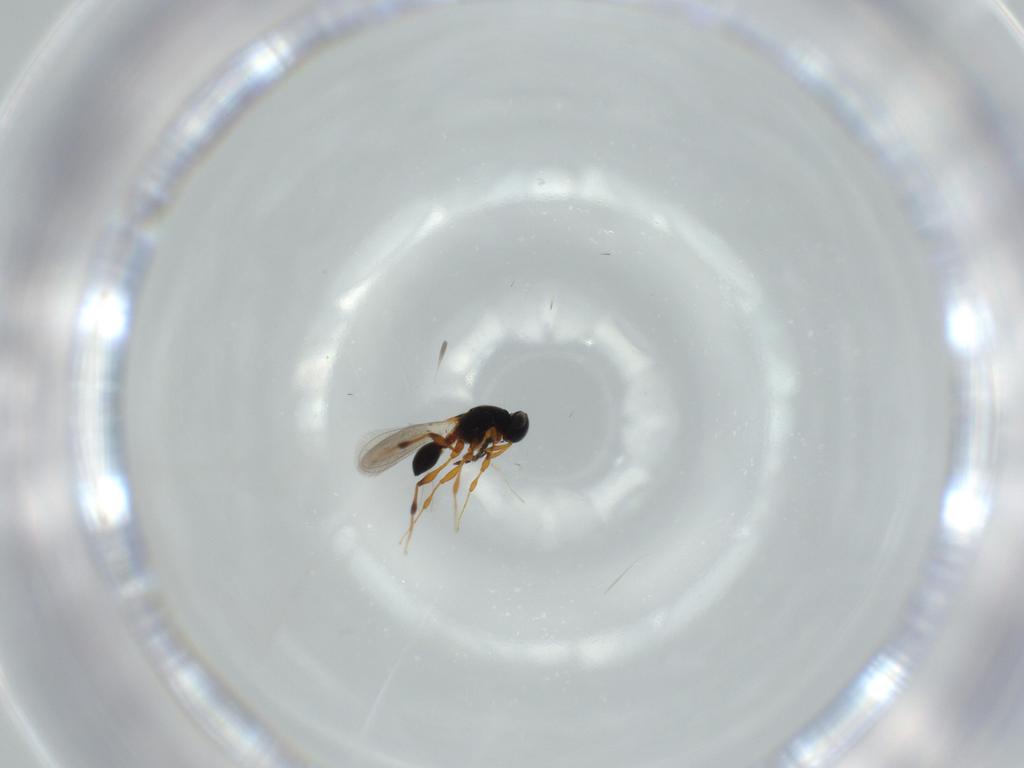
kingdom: Animalia
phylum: Arthropoda
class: Insecta
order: Hymenoptera
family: Platygastridae
